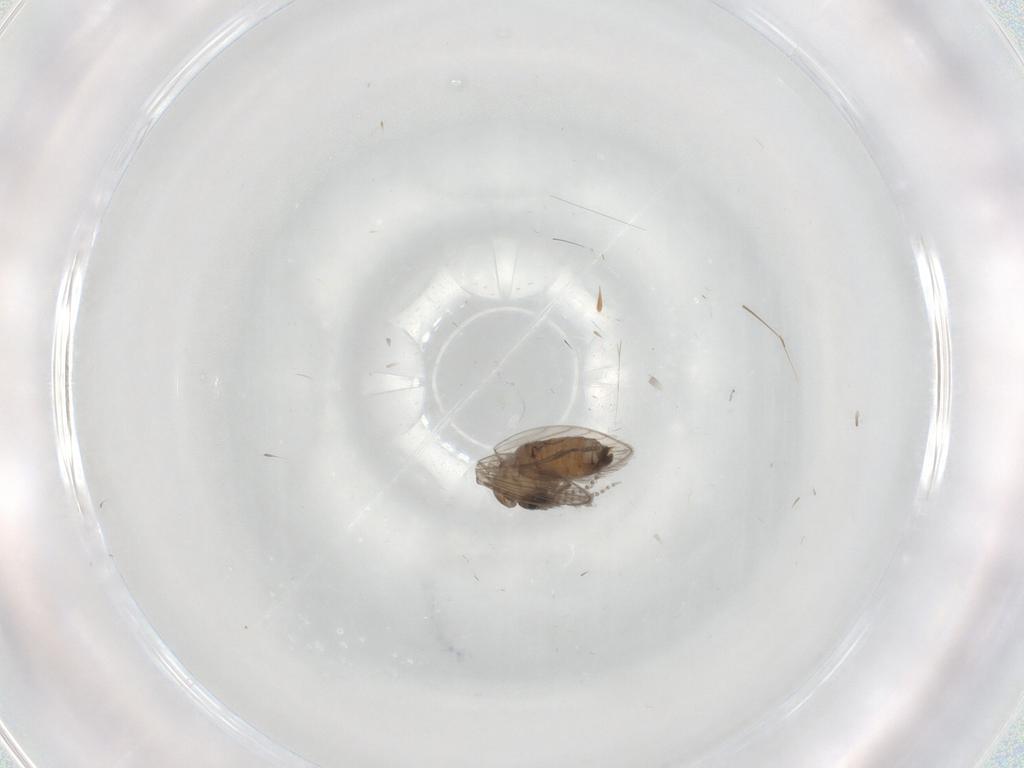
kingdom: Animalia
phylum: Arthropoda
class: Insecta
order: Diptera
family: Psychodidae
